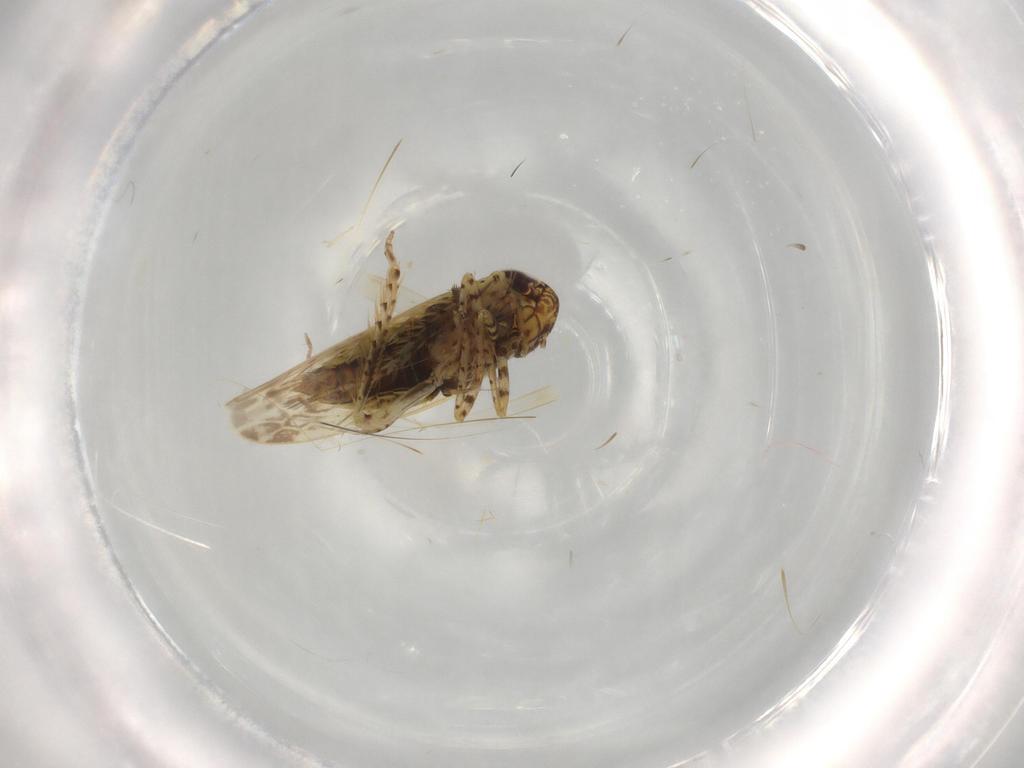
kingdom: Animalia
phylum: Arthropoda
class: Insecta
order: Hemiptera
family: Rhyparochromidae
